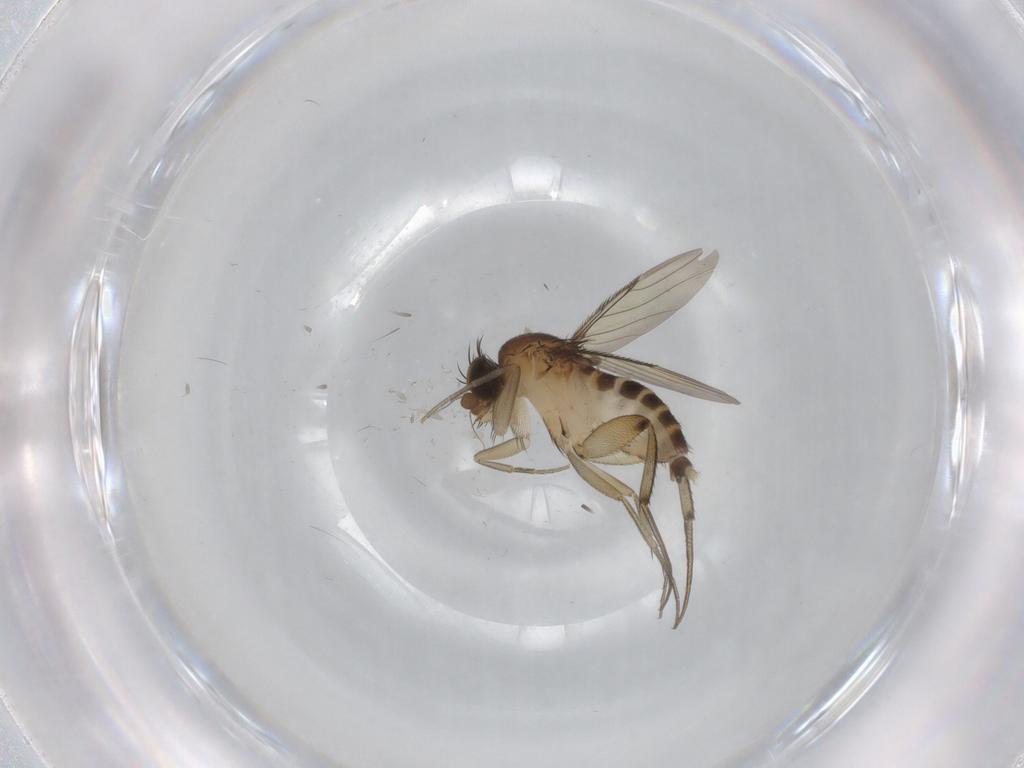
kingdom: Animalia
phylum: Arthropoda
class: Insecta
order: Diptera
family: Phoridae
